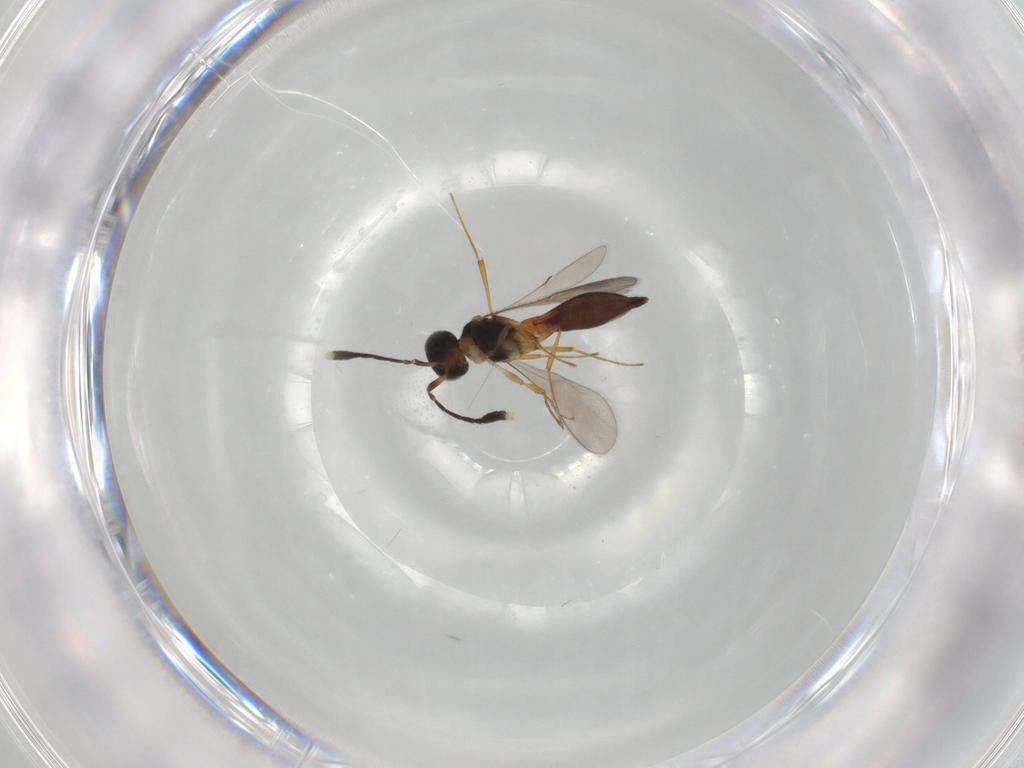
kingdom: Animalia
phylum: Arthropoda
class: Insecta
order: Hymenoptera
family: Scelionidae
